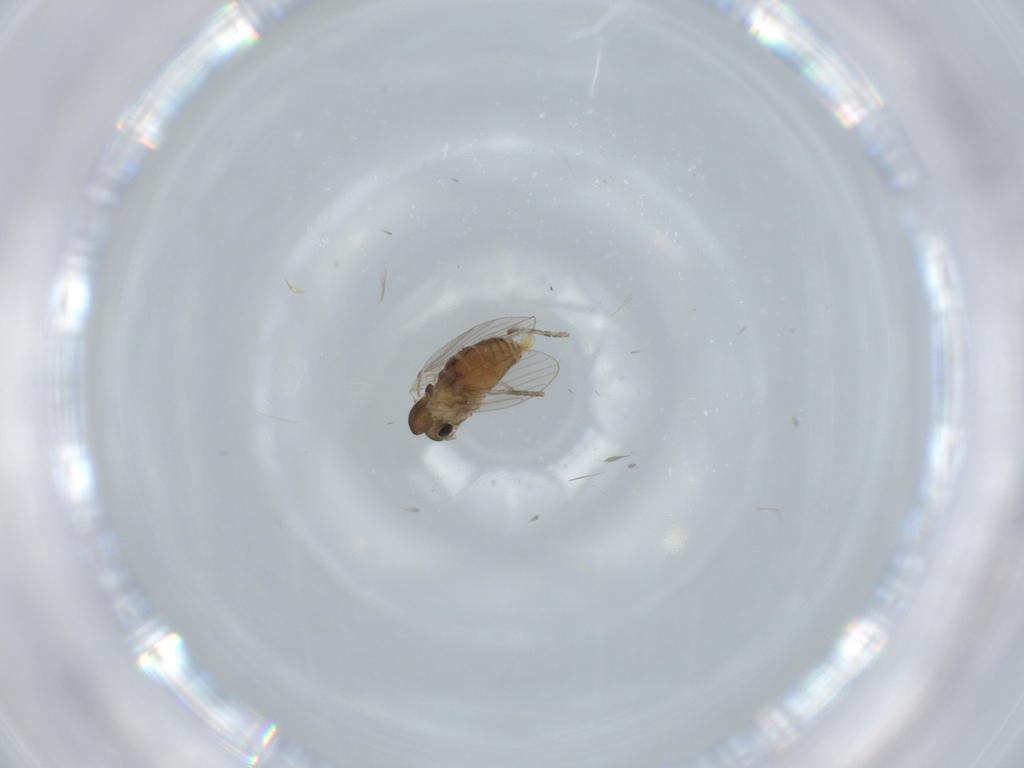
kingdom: Animalia
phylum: Arthropoda
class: Insecta
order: Diptera
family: Psychodidae
